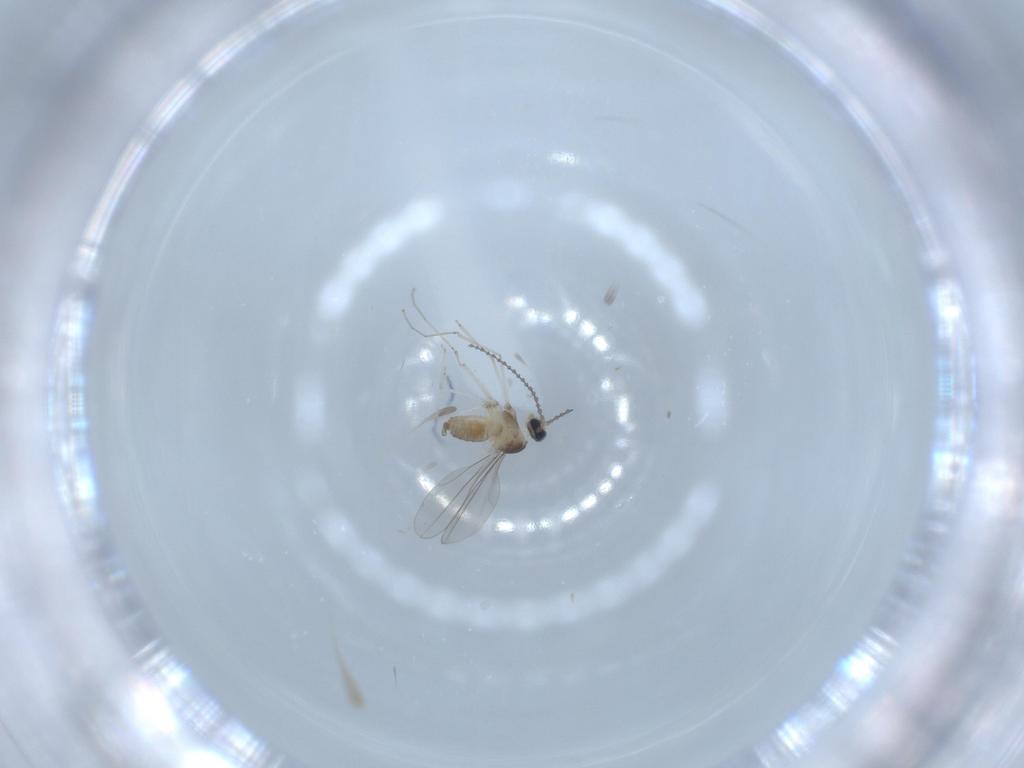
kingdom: Animalia
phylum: Arthropoda
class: Insecta
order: Diptera
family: Cecidomyiidae
